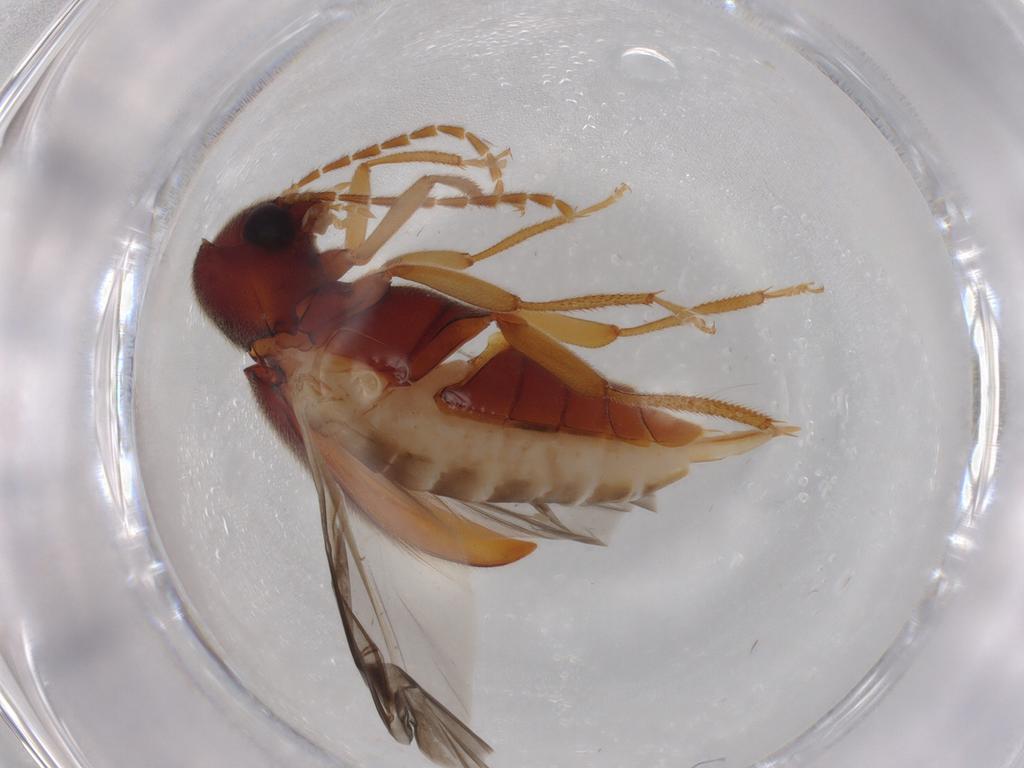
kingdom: Animalia
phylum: Arthropoda
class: Insecta
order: Coleoptera
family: Ptilodactylidae
